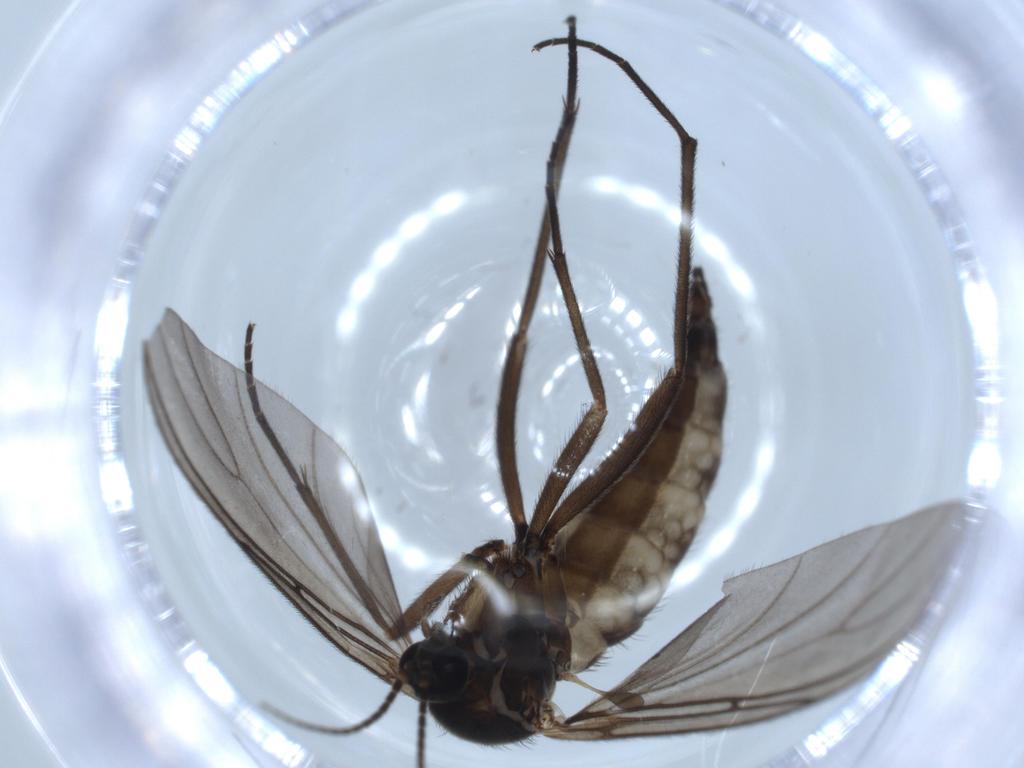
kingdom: Animalia
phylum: Arthropoda
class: Insecta
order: Diptera
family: Sciaridae
